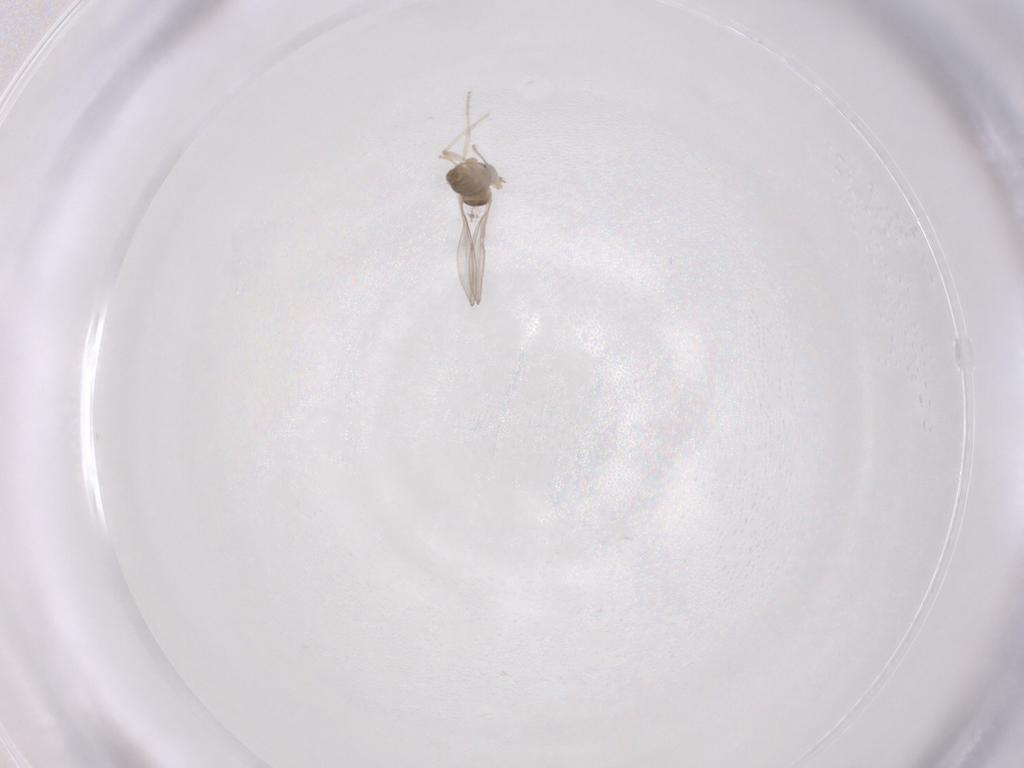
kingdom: Animalia
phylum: Arthropoda
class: Insecta
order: Diptera
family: Cecidomyiidae
